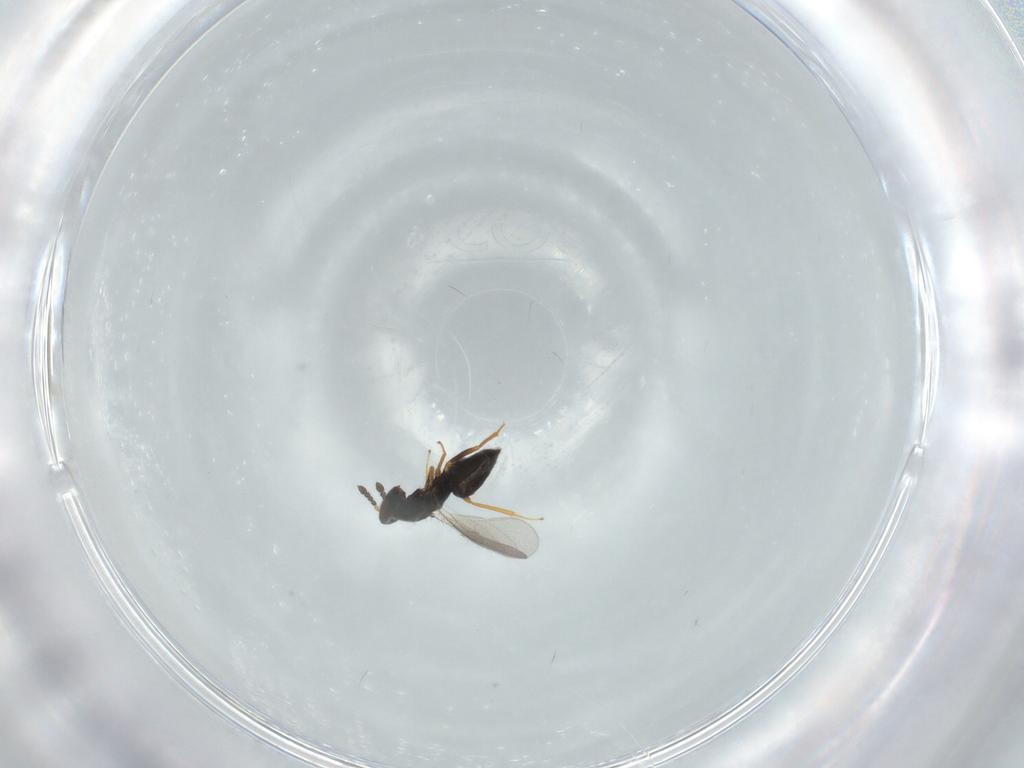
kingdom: Animalia
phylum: Arthropoda
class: Insecta
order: Hymenoptera
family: Eulophidae
